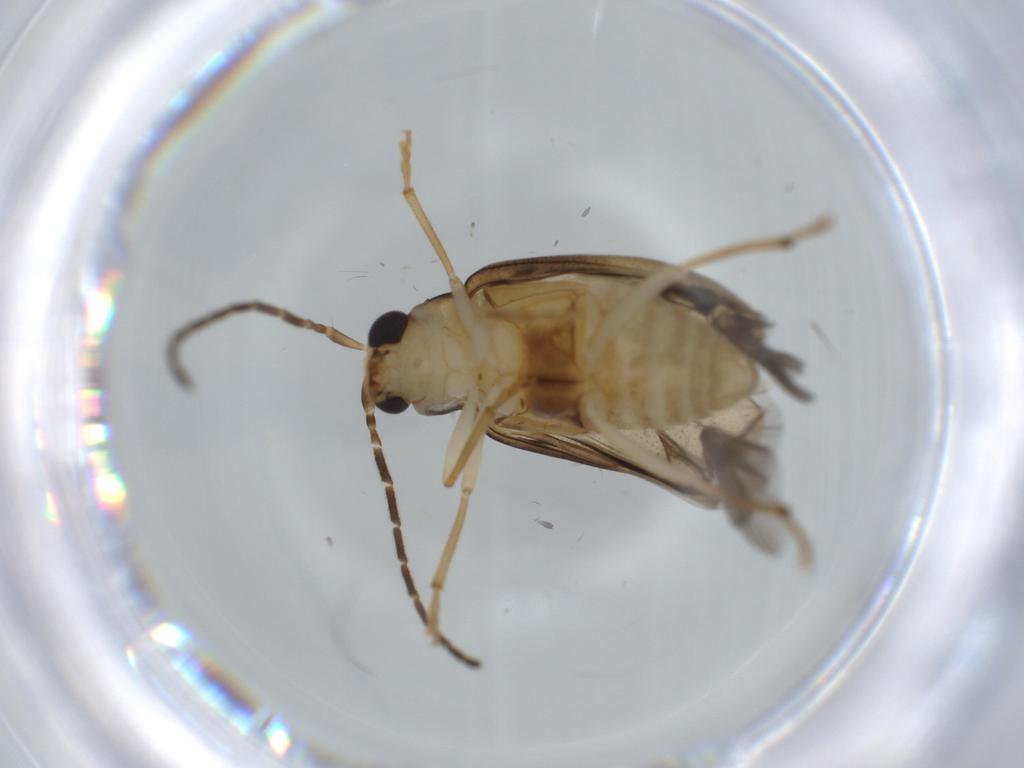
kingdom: Animalia
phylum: Arthropoda
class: Insecta
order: Coleoptera
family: Chrysomelidae
